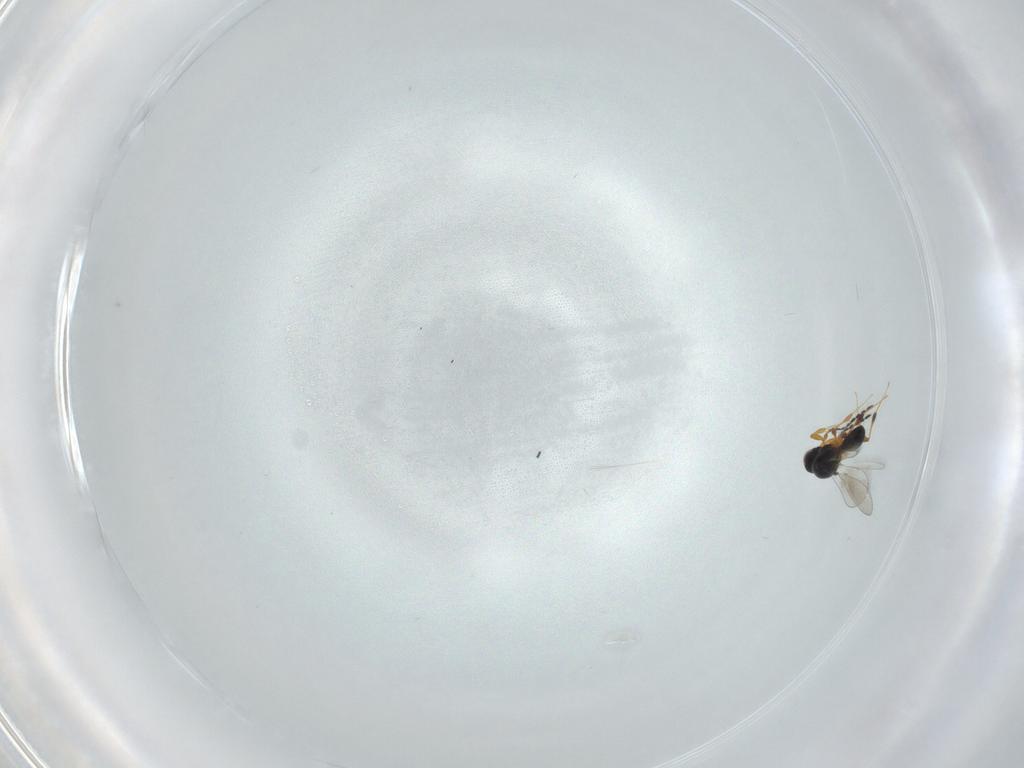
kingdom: Animalia
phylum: Arthropoda
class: Insecta
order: Hymenoptera
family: Platygastridae
